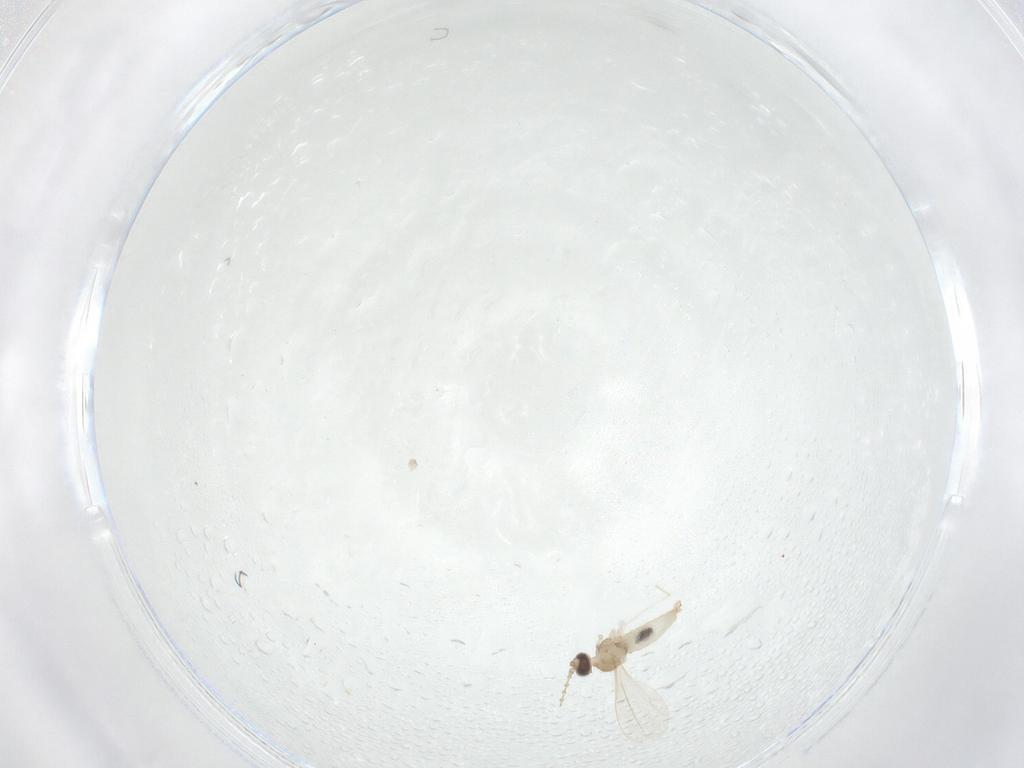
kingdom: Animalia
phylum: Arthropoda
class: Insecta
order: Diptera
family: Cecidomyiidae
